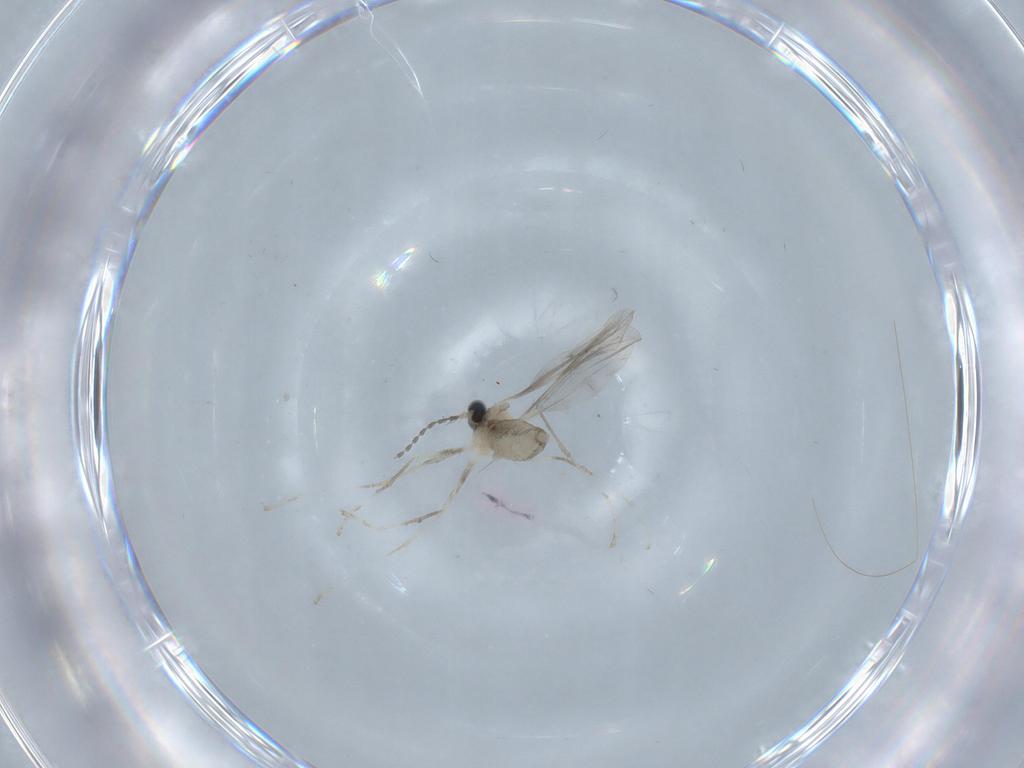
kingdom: Animalia
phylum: Arthropoda
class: Insecta
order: Diptera
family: Cecidomyiidae
